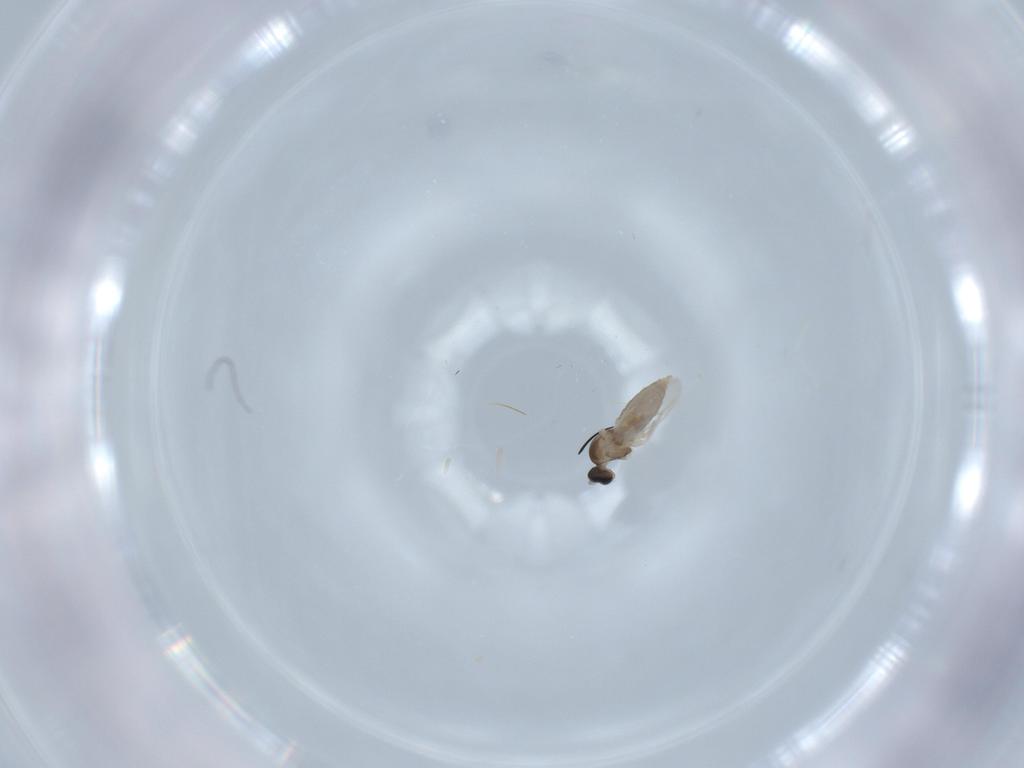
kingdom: Animalia
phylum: Arthropoda
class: Insecta
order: Diptera
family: Cecidomyiidae
